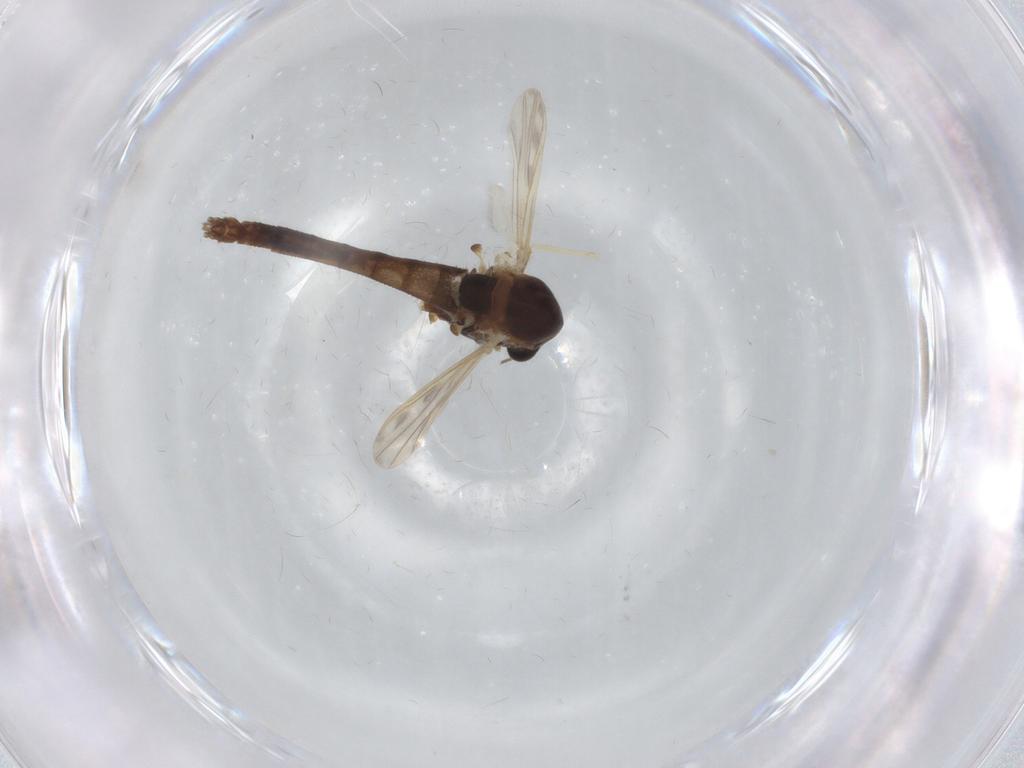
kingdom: Animalia
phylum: Arthropoda
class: Insecta
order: Diptera
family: Chironomidae
